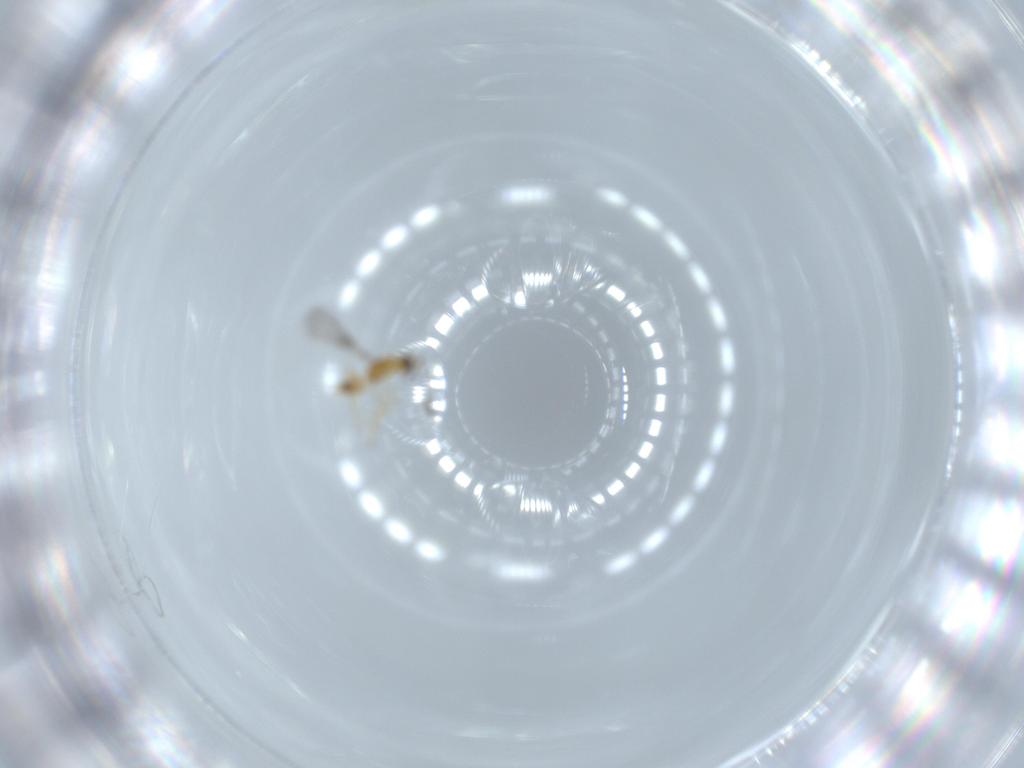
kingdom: Animalia
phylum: Arthropoda
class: Insecta
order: Hymenoptera
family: Mymaridae
